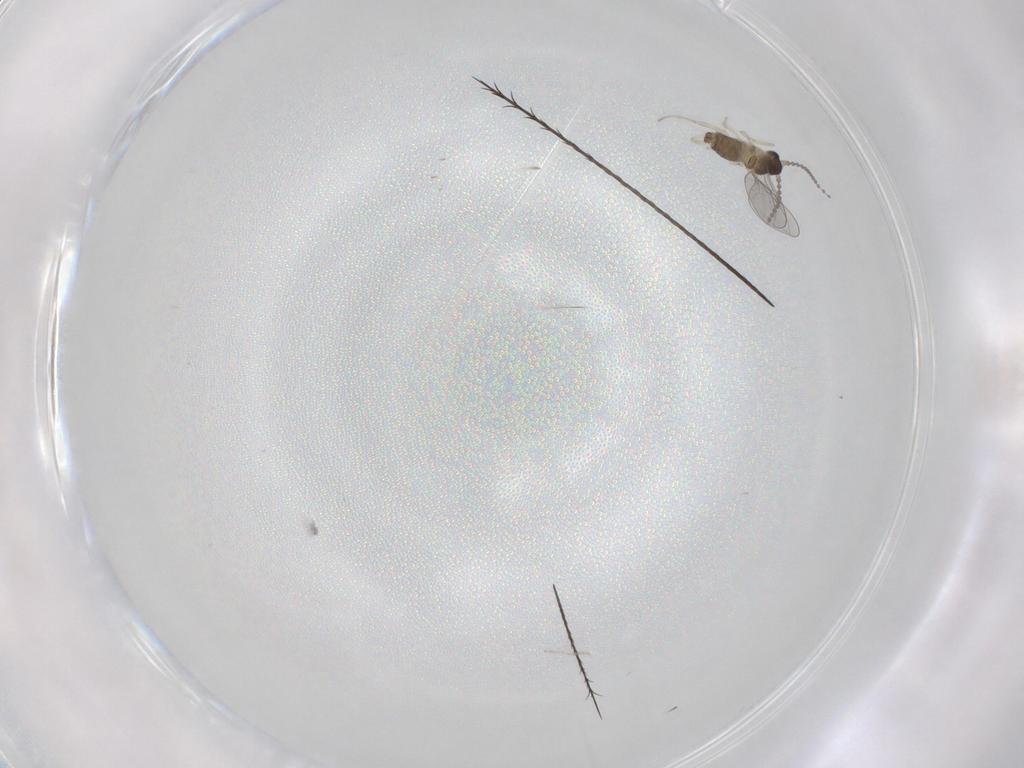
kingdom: Animalia
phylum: Arthropoda
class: Insecta
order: Diptera
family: Cecidomyiidae
